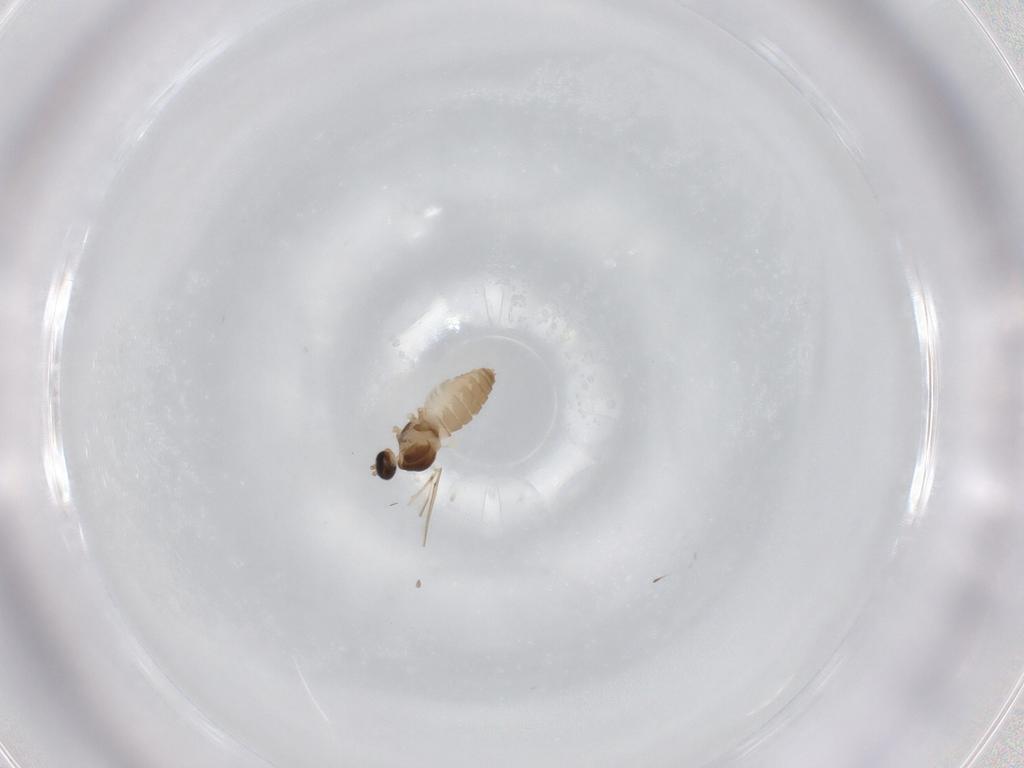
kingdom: Animalia
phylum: Arthropoda
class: Insecta
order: Diptera
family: Cecidomyiidae
